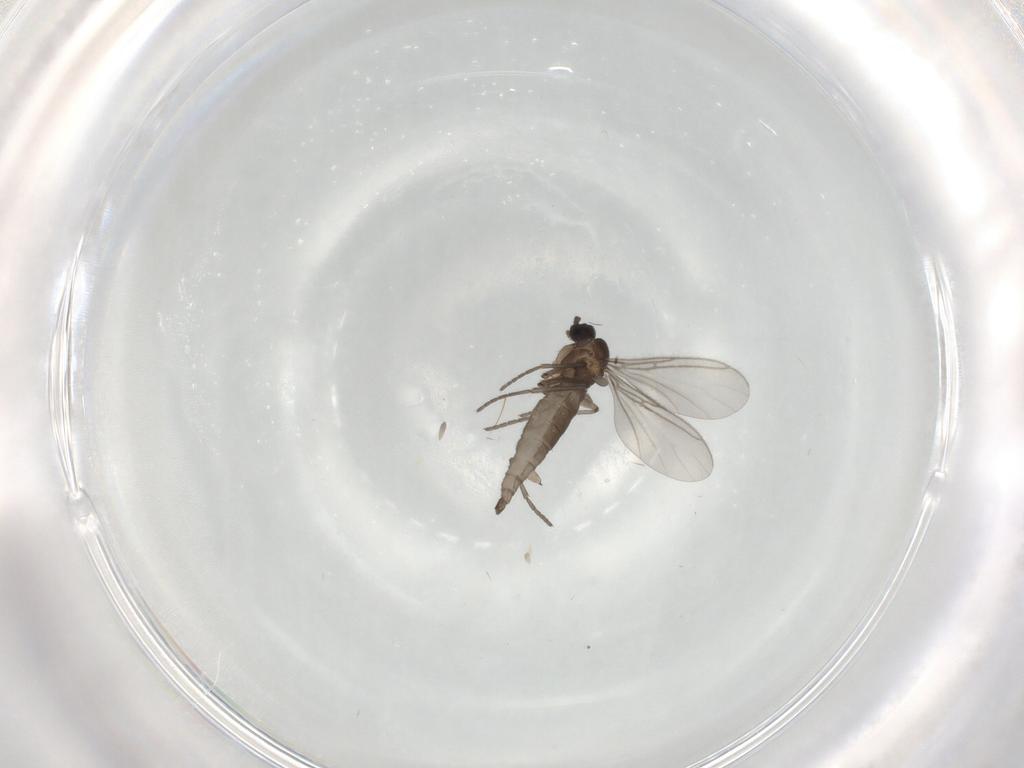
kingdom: Animalia
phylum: Arthropoda
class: Insecta
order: Diptera
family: Sciaridae
